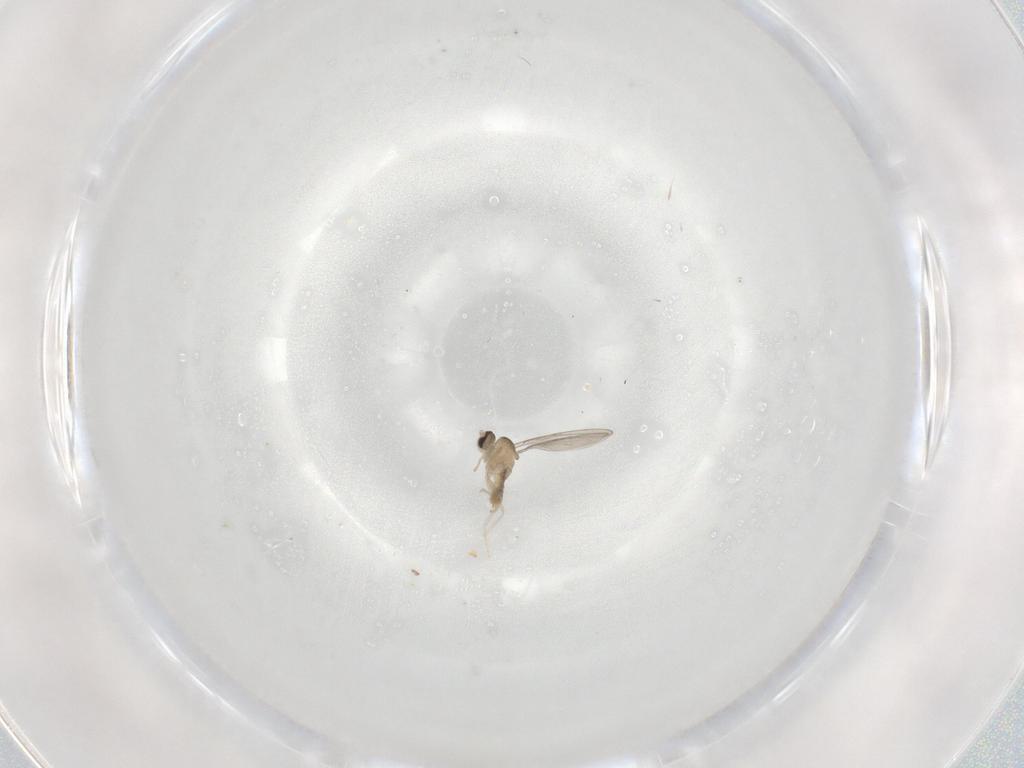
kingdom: Animalia
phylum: Arthropoda
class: Insecta
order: Diptera
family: Cecidomyiidae
